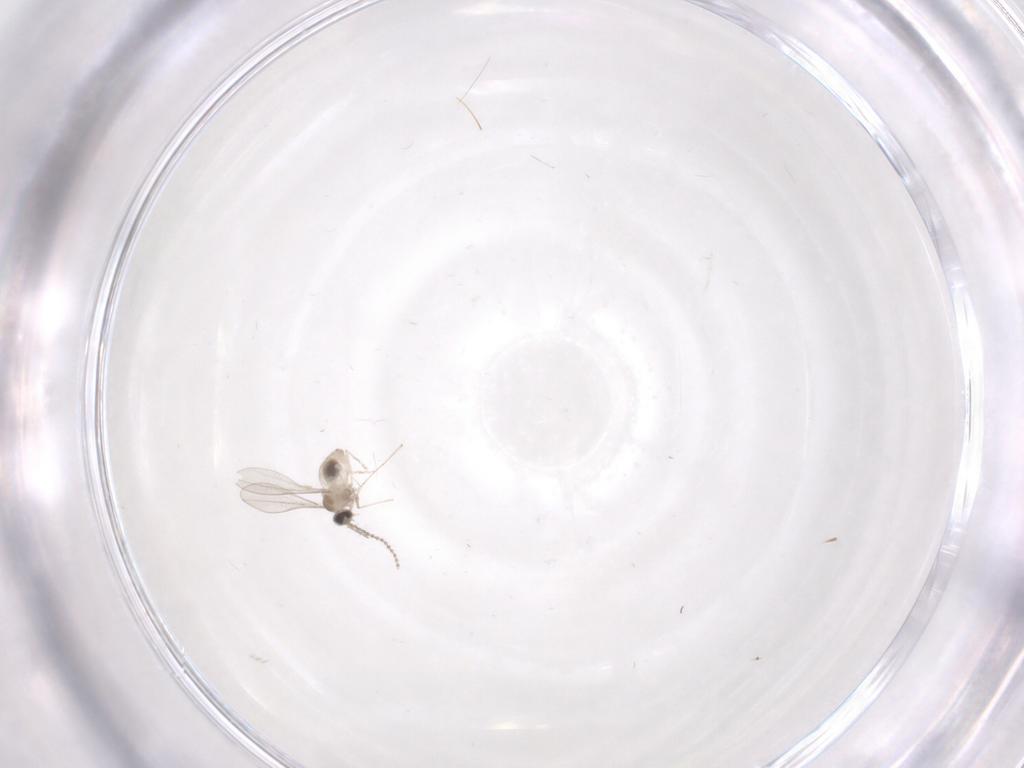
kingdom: Animalia
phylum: Arthropoda
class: Insecta
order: Diptera
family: Cecidomyiidae
